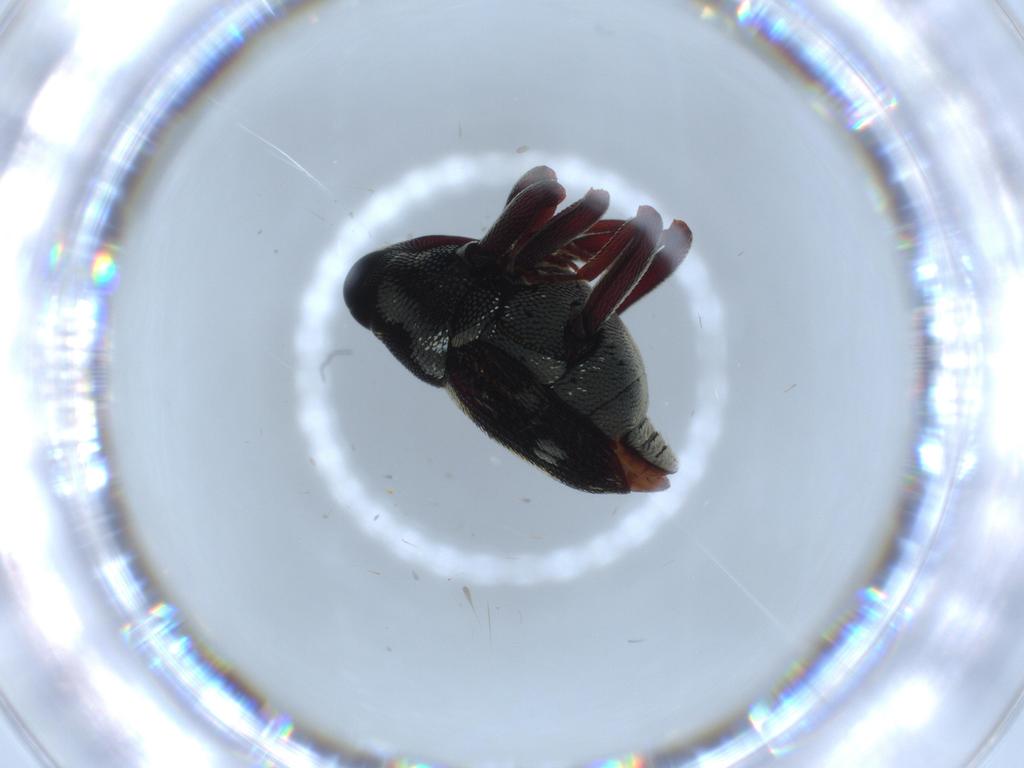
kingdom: Animalia
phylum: Arthropoda
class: Insecta
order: Coleoptera
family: Curculionidae
